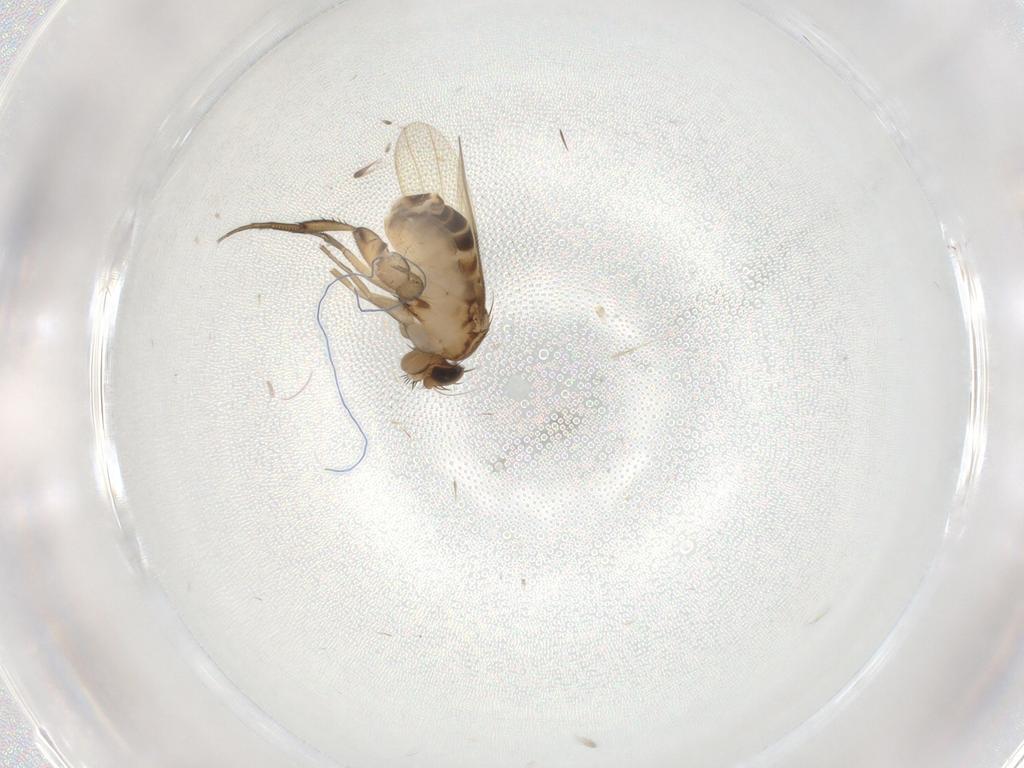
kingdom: Animalia
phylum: Arthropoda
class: Insecta
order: Diptera
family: Phoridae
